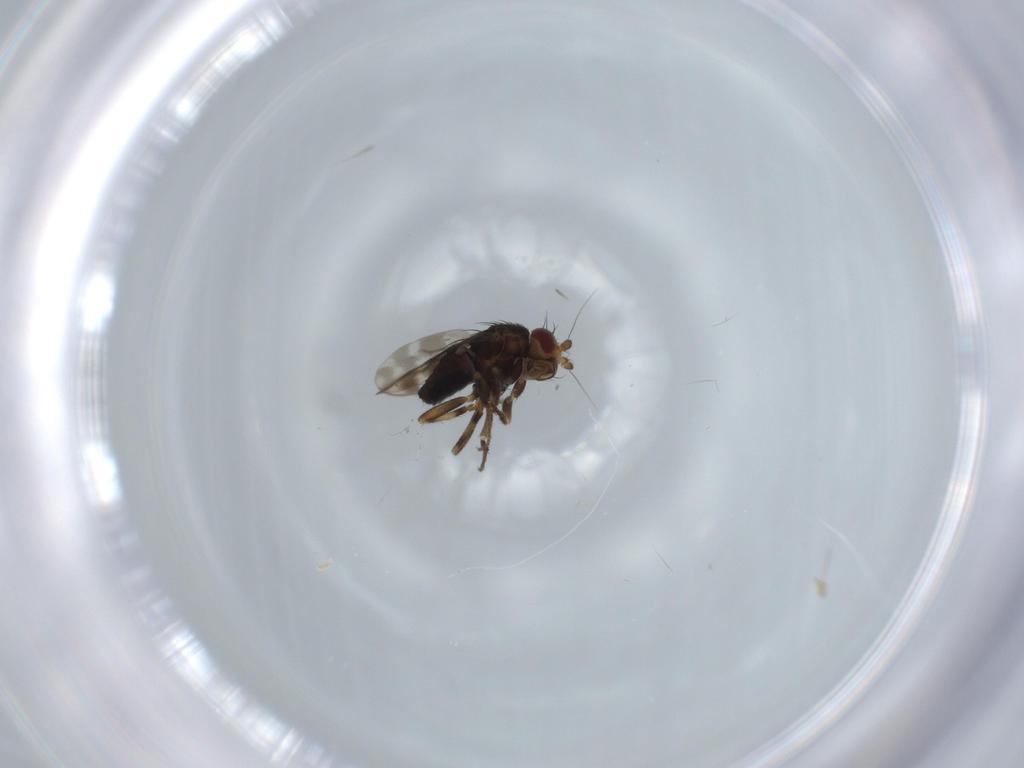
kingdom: Animalia
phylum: Arthropoda
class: Insecta
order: Diptera
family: Sphaeroceridae
